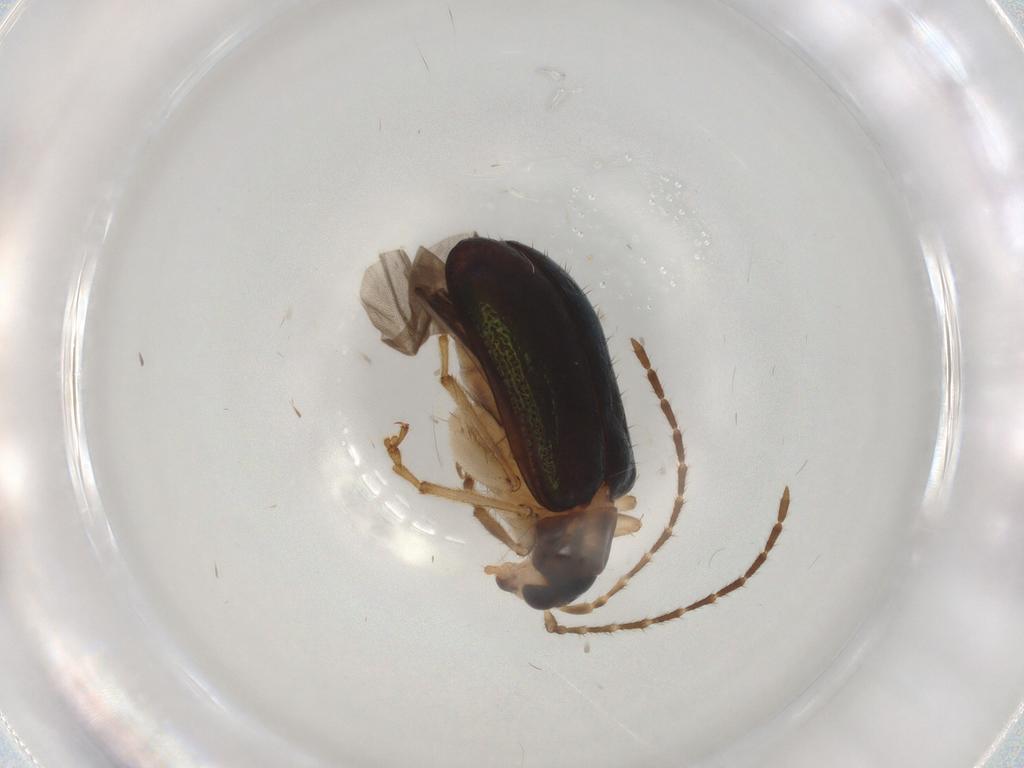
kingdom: Animalia
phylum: Arthropoda
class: Insecta
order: Coleoptera
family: Chrysomelidae
